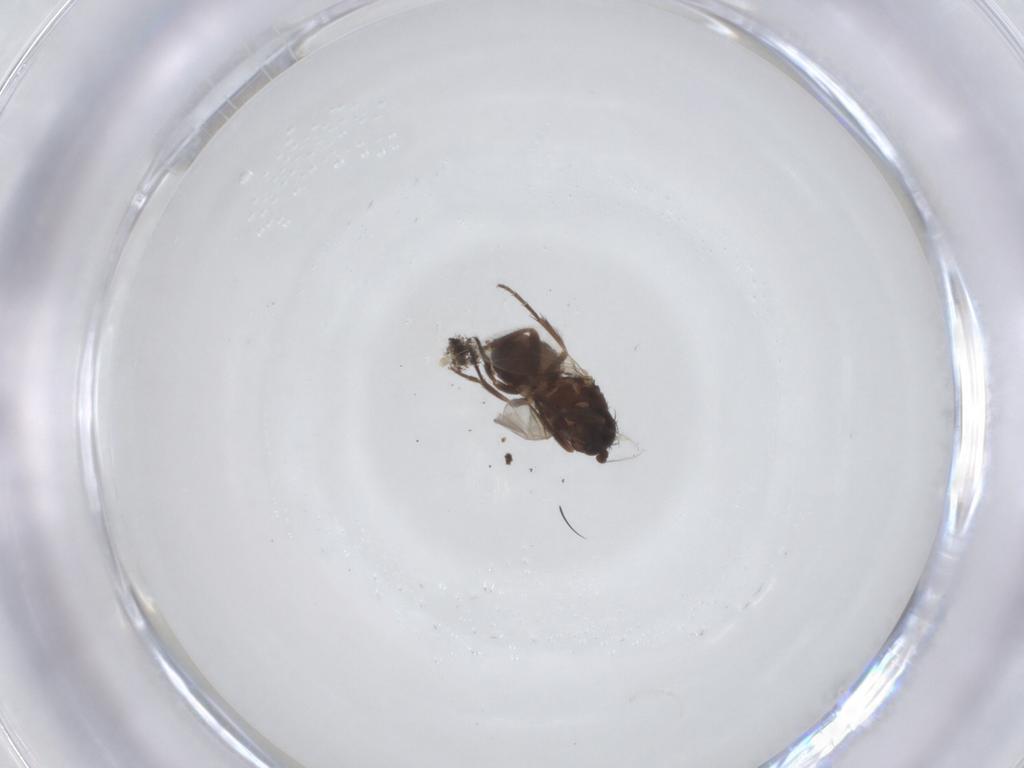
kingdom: Animalia
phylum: Arthropoda
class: Insecta
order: Diptera
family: Sphaeroceridae
